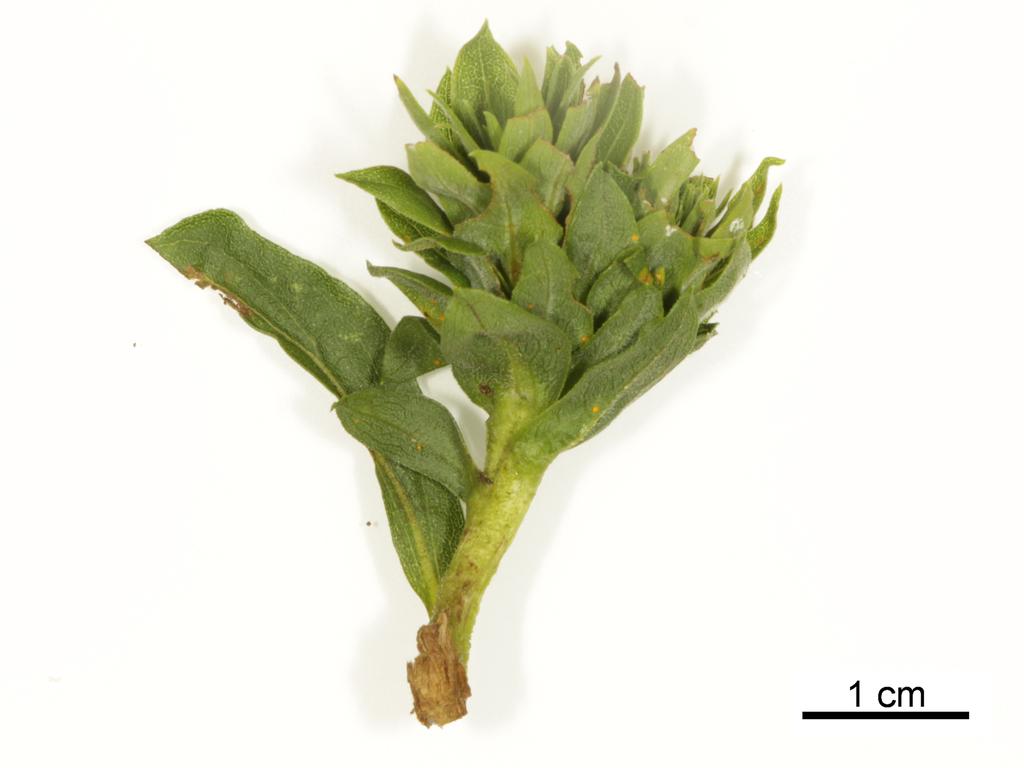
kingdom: Animalia
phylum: Arthropoda
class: Insecta
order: Hymenoptera
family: Eulophidae
